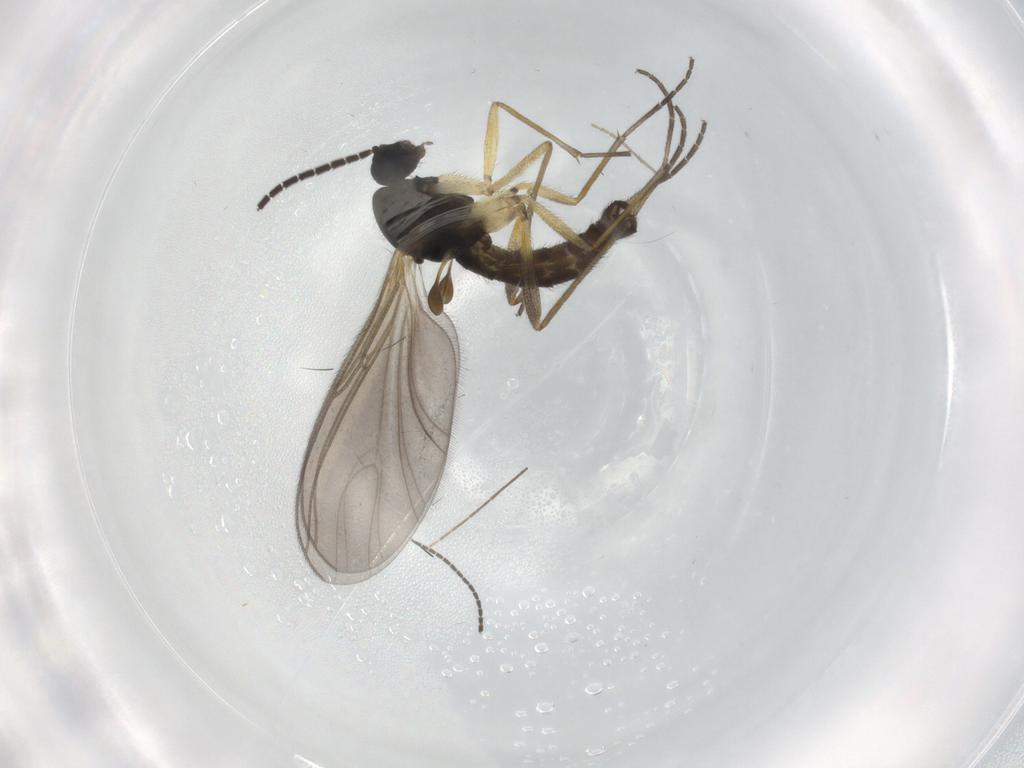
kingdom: Animalia
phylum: Arthropoda
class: Insecta
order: Diptera
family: Sciaridae
